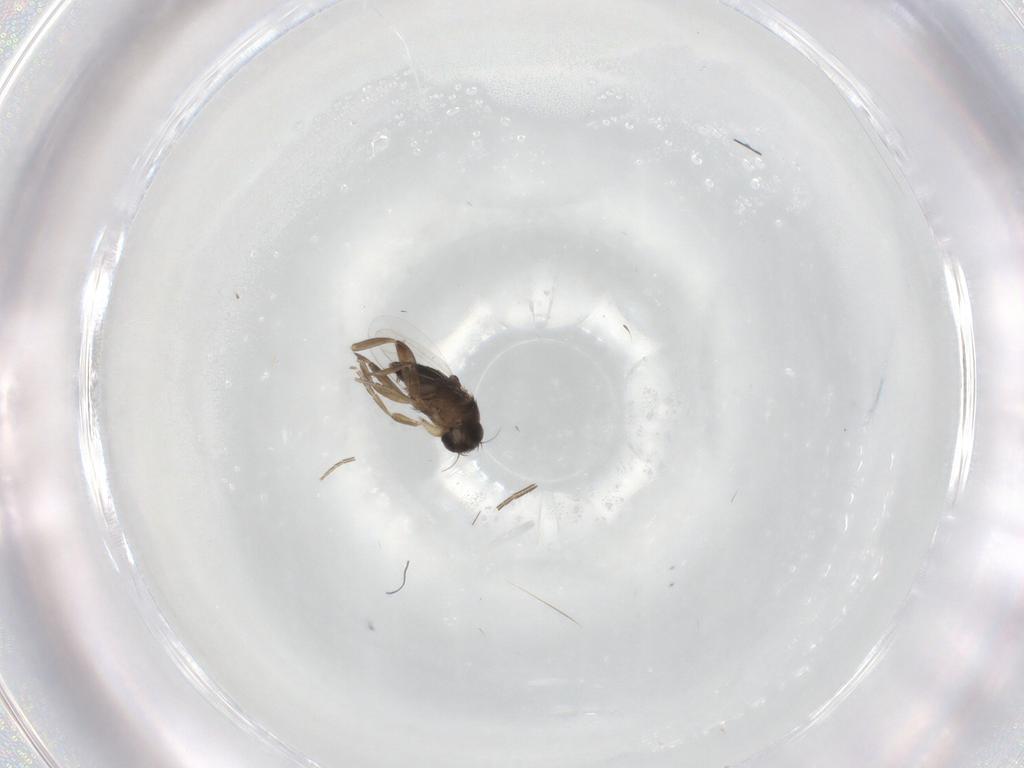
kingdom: Animalia
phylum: Arthropoda
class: Insecta
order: Diptera
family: Phoridae
